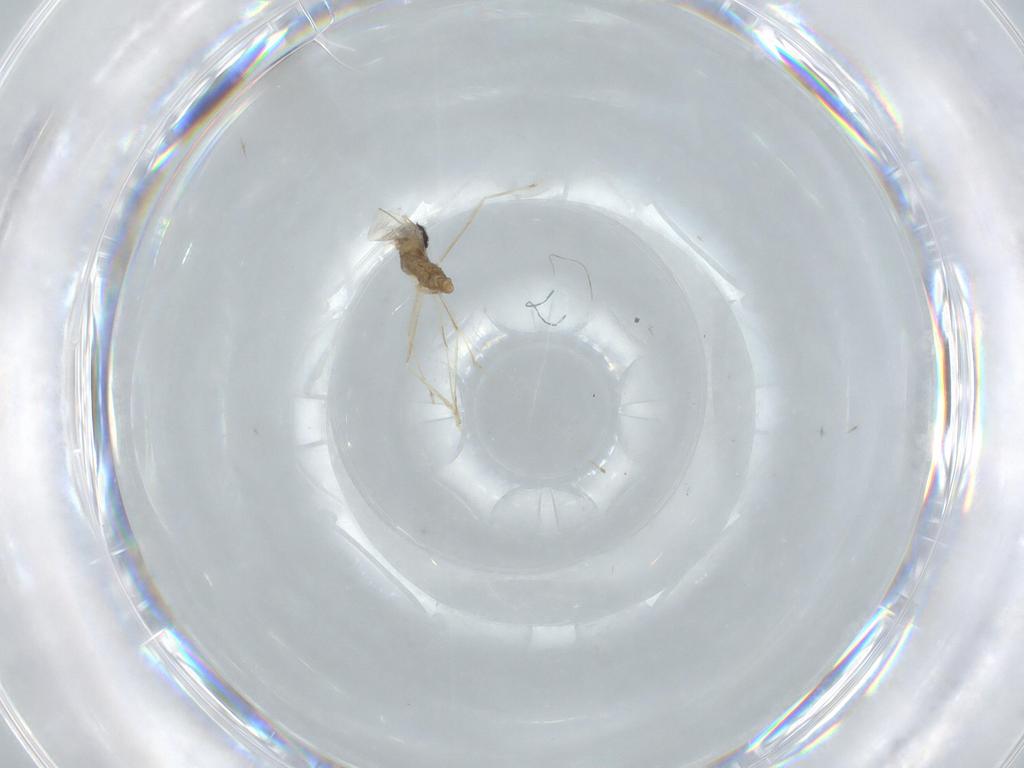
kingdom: Animalia
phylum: Arthropoda
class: Insecta
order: Diptera
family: Cecidomyiidae
